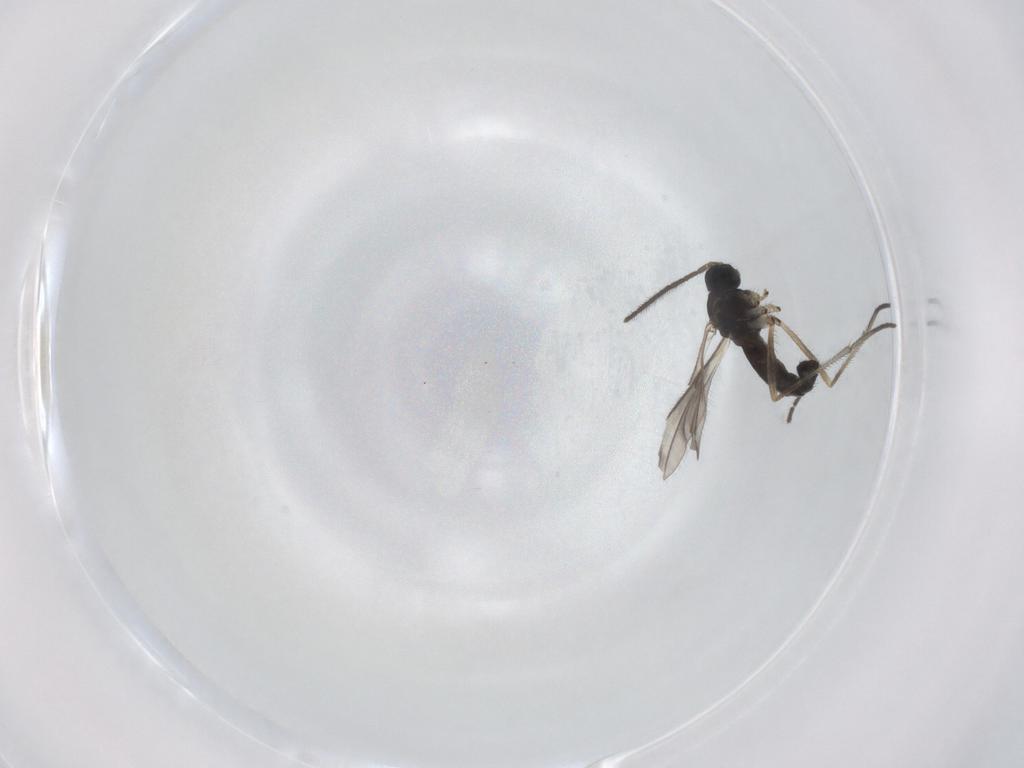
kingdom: Animalia
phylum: Arthropoda
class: Insecta
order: Diptera
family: Sciaridae
